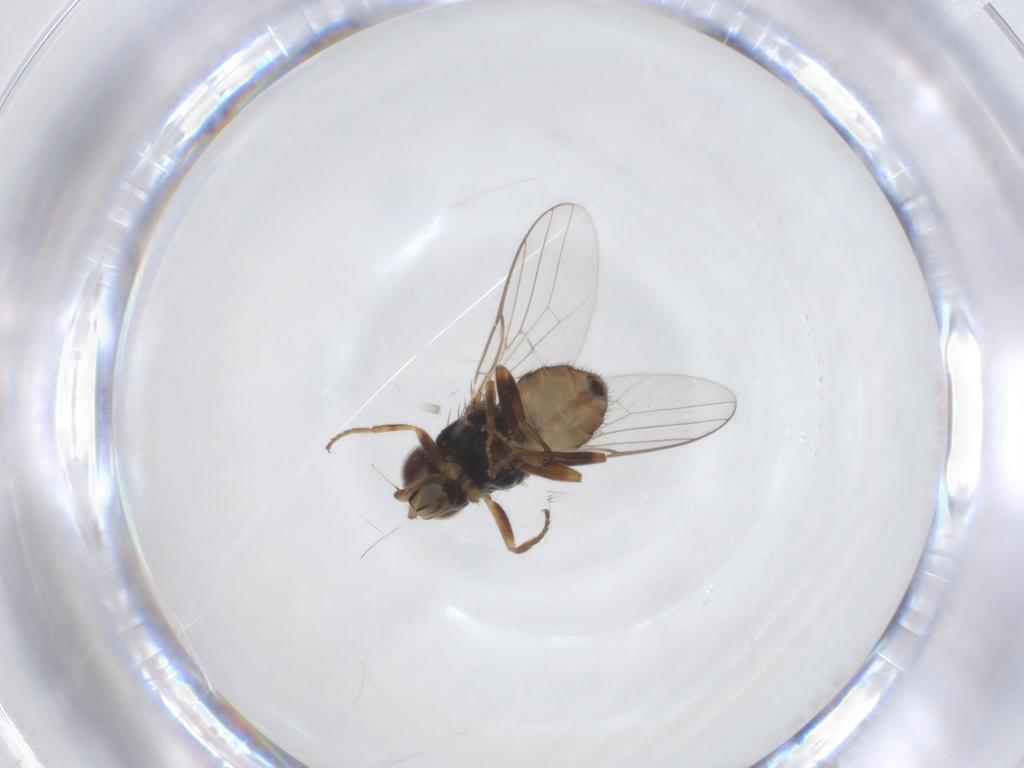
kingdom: Animalia
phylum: Arthropoda
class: Insecta
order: Diptera
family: Chloropidae
